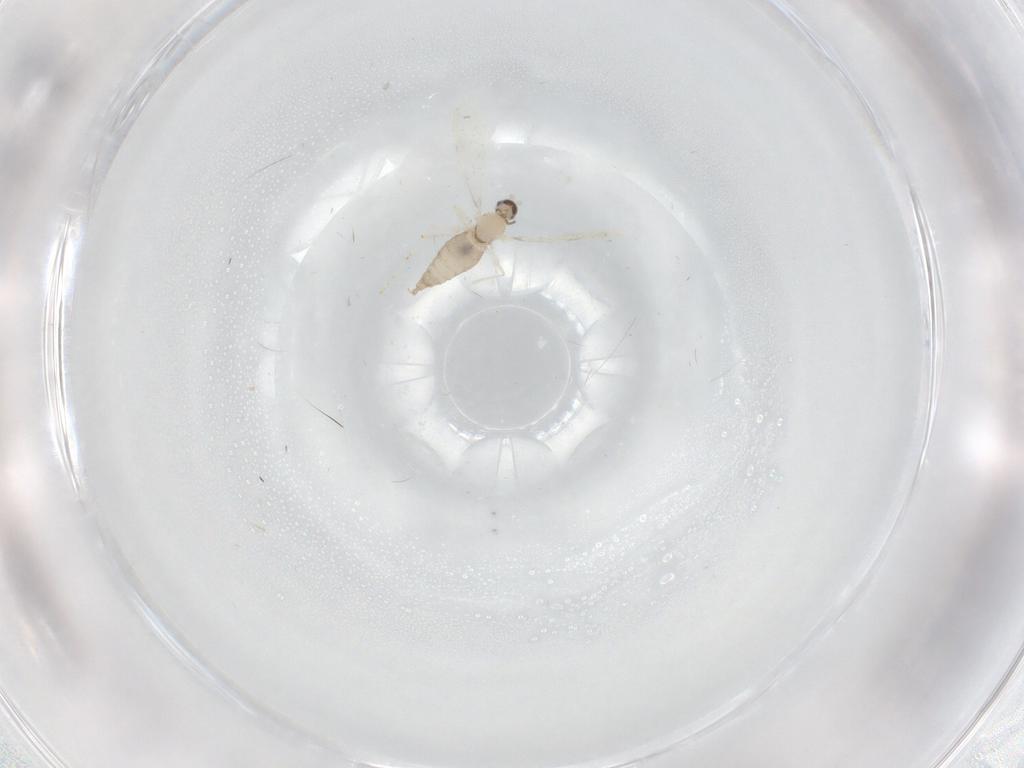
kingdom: Animalia
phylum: Arthropoda
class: Insecta
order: Diptera
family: Cecidomyiidae
